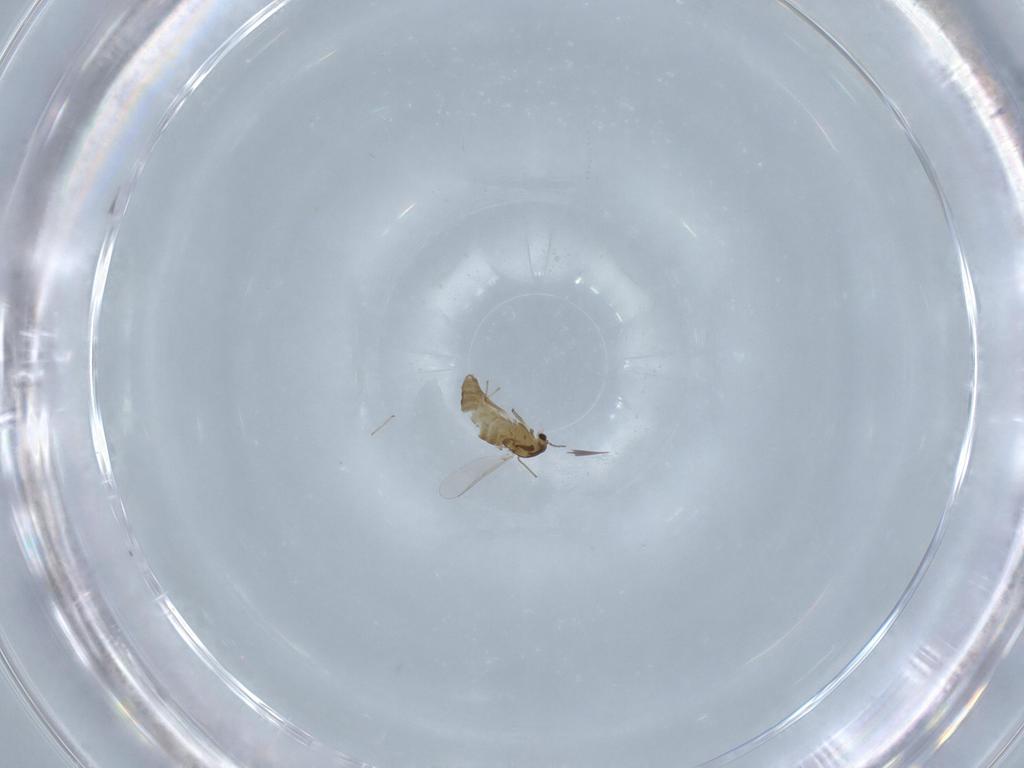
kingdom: Animalia
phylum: Arthropoda
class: Insecta
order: Diptera
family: Chironomidae
